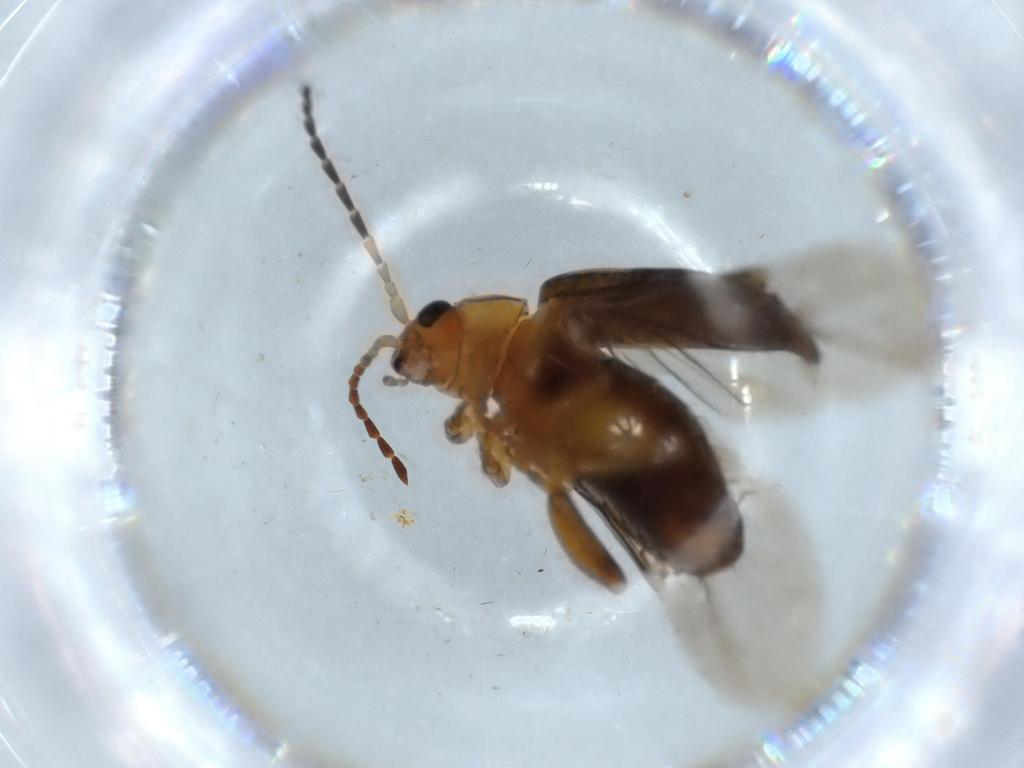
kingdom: Animalia
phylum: Arthropoda
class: Insecta
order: Coleoptera
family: Chrysomelidae
